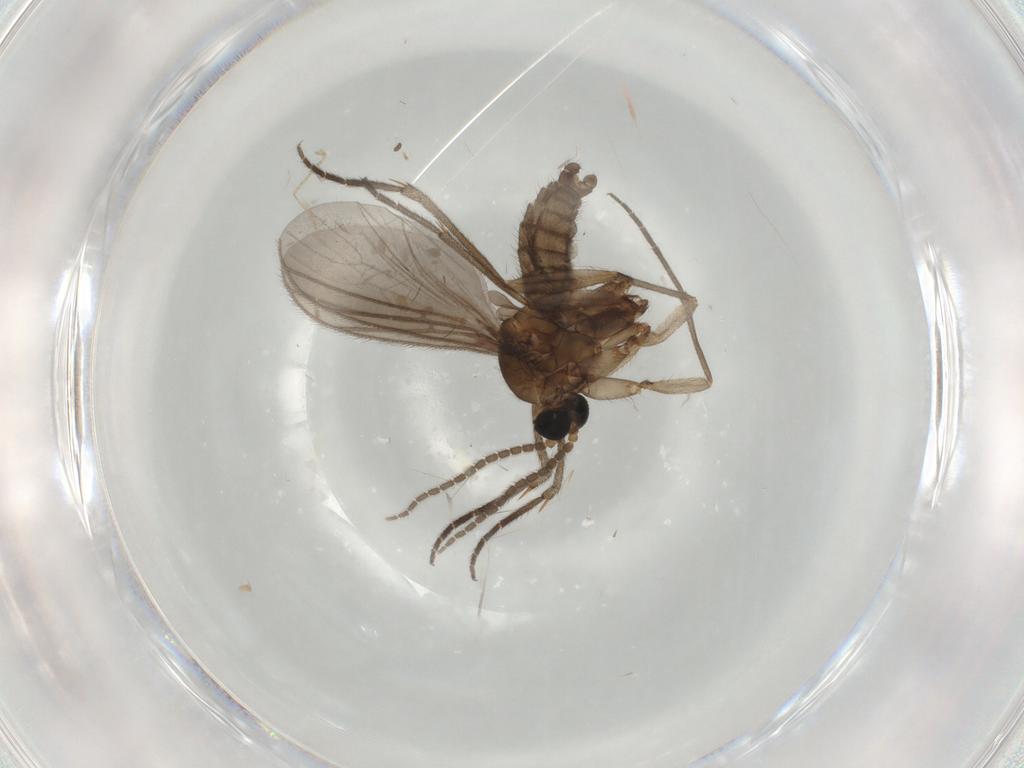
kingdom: Animalia
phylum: Arthropoda
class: Insecta
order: Diptera
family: Sciaridae
